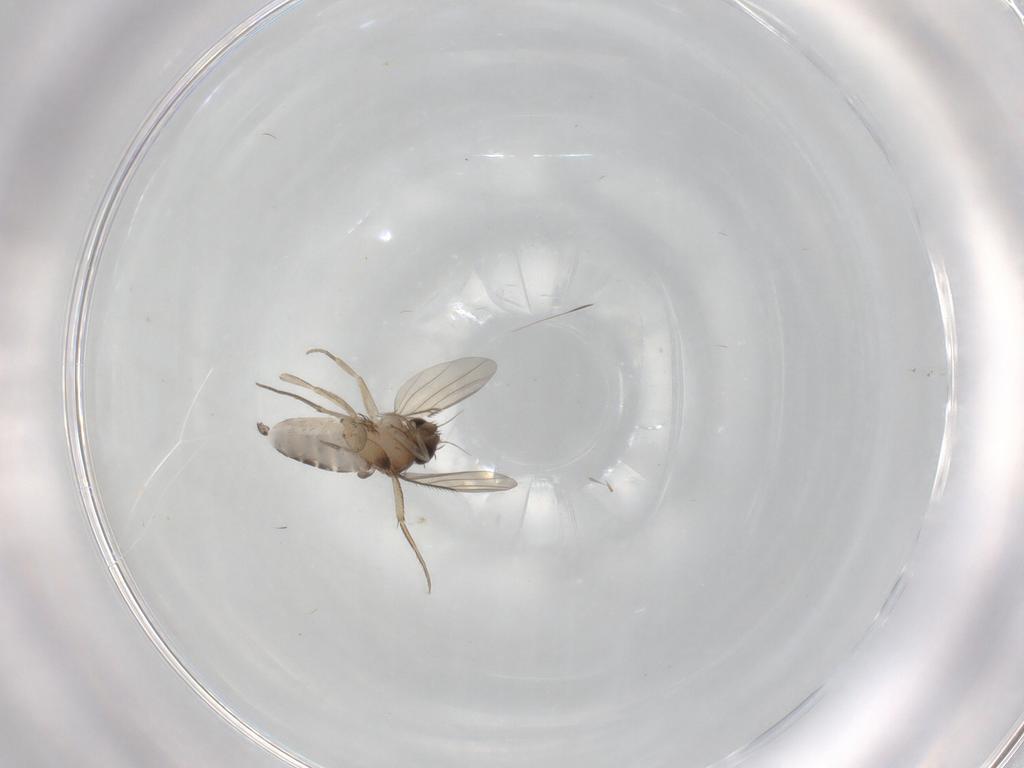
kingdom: Animalia
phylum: Arthropoda
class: Insecta
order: Diptera
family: Phoridae
